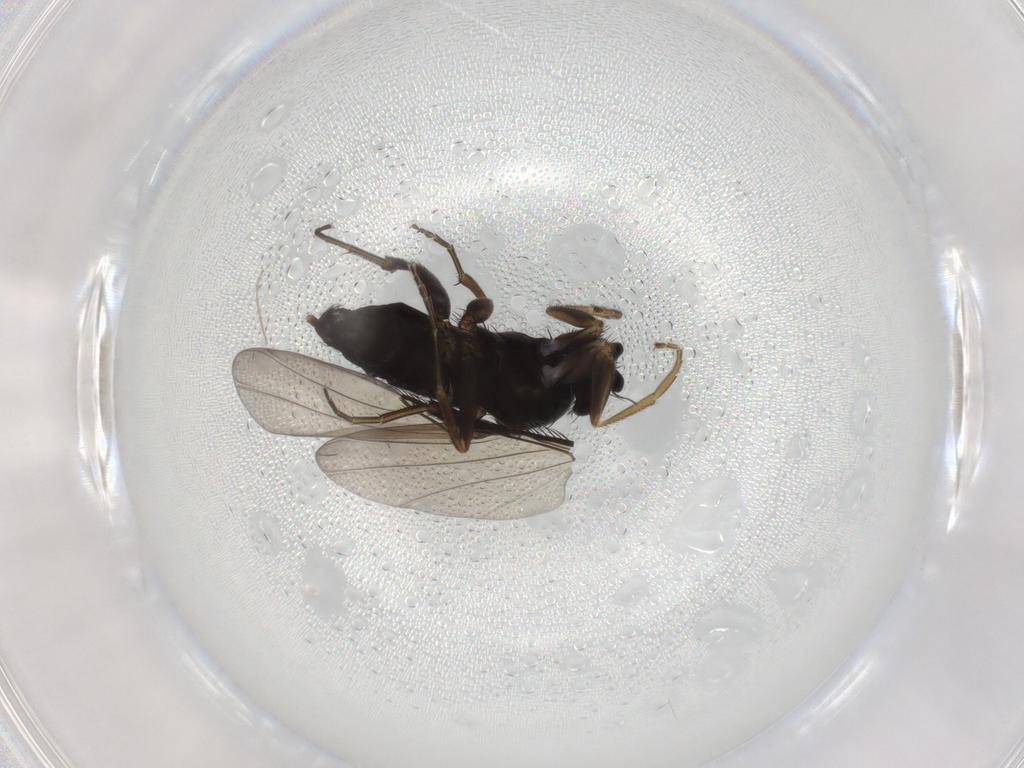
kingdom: Animalia
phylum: Arthropoda
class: Insecta
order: Diptera
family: Phoridae
